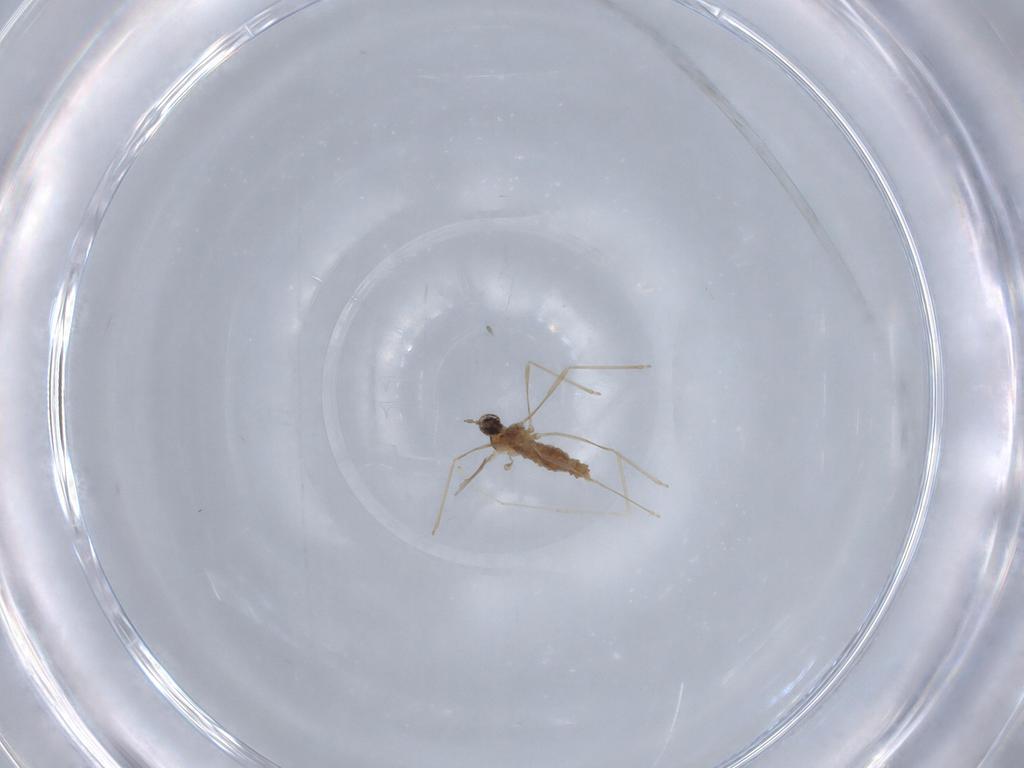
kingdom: Animalia
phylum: Arthropoda
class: Insecta
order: Diptera
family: Cecidomyiidae
